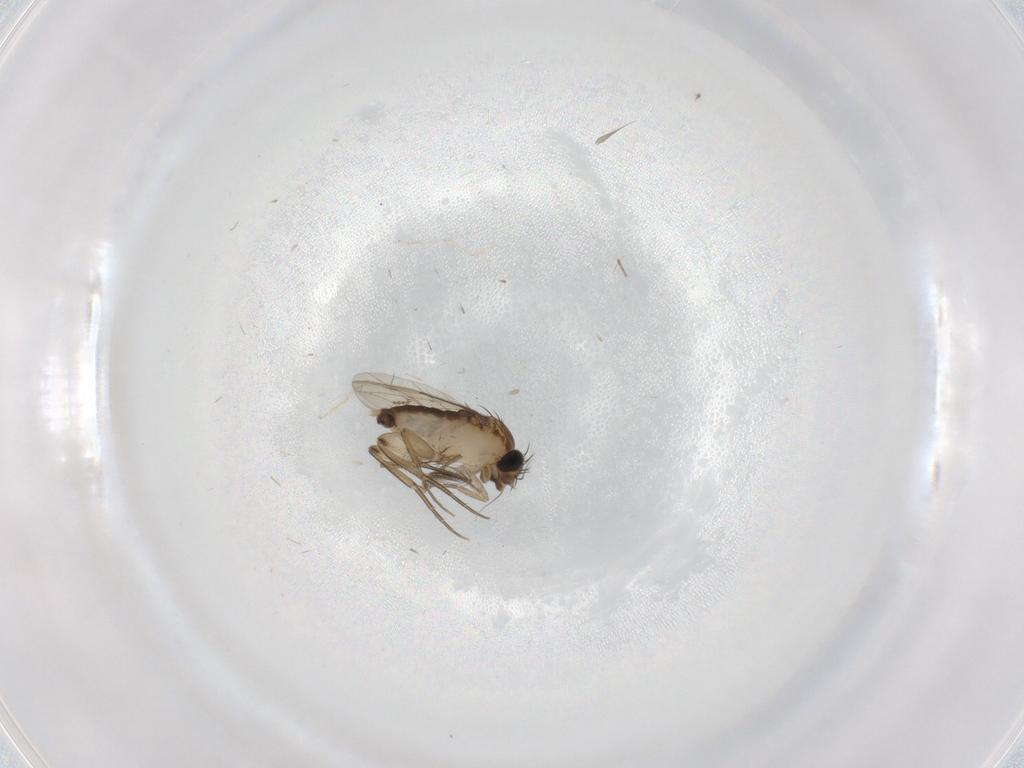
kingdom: Animalia
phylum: Arthropoda
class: Insecta
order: Diptera
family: Phoridae
